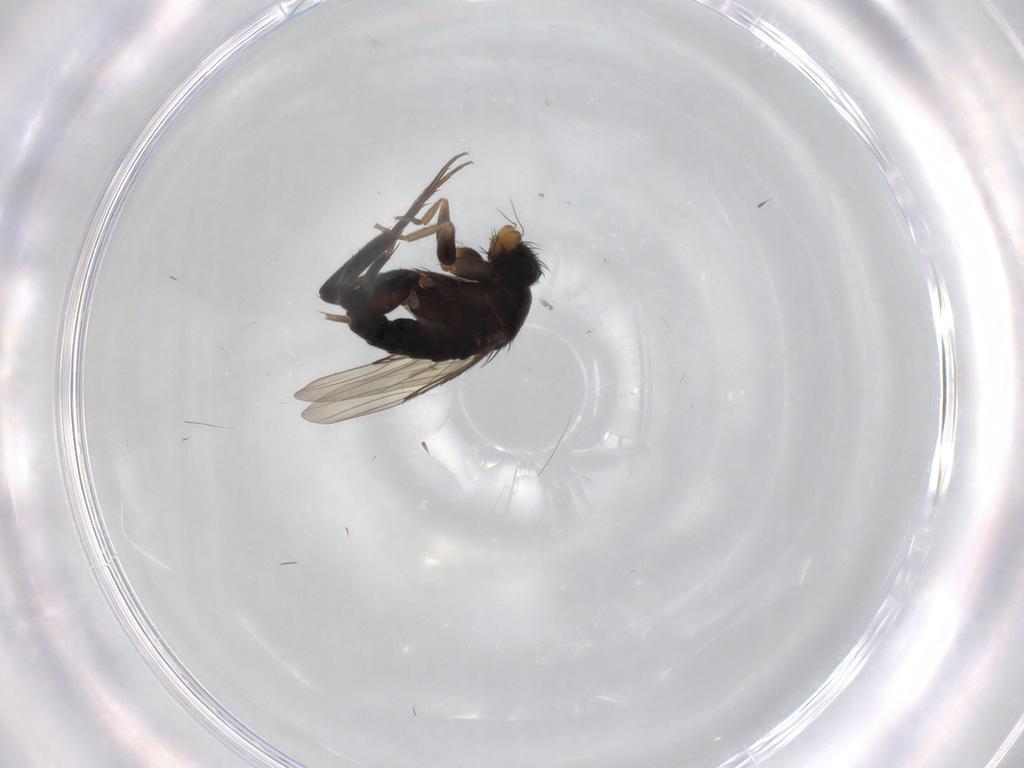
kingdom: Animalia
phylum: Arthropoda
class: Insecta
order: Diptera
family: Phoridae
